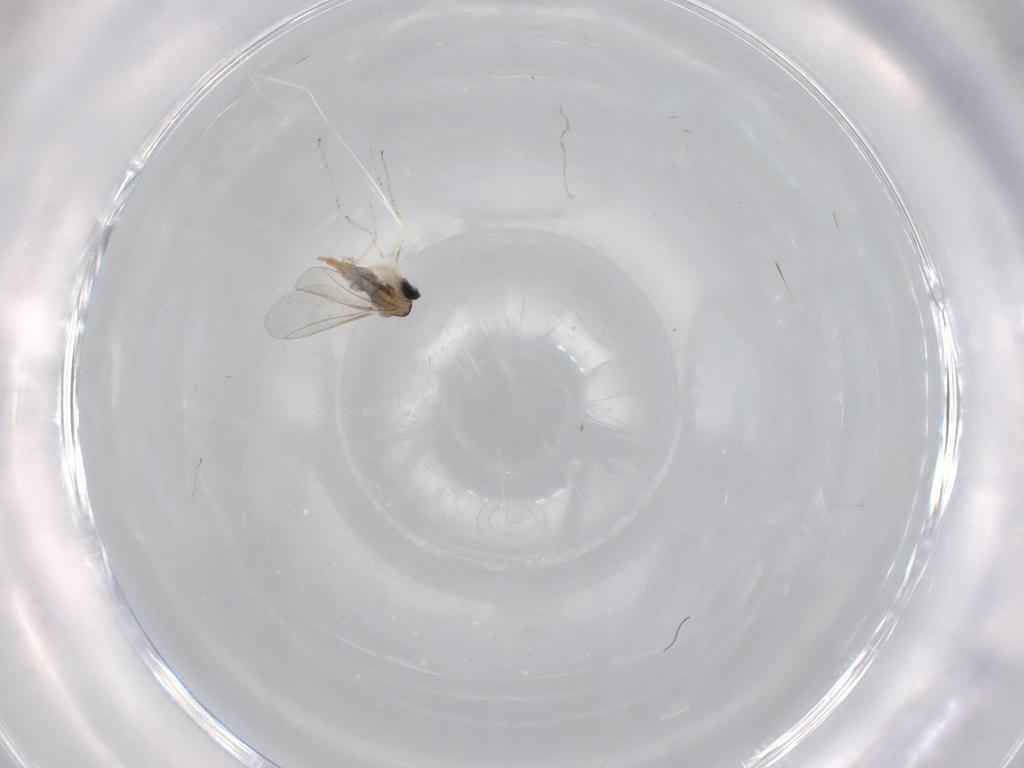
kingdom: Animalia
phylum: Arthropoda
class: Insecta
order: Diptera
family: Cecidomyiidae
